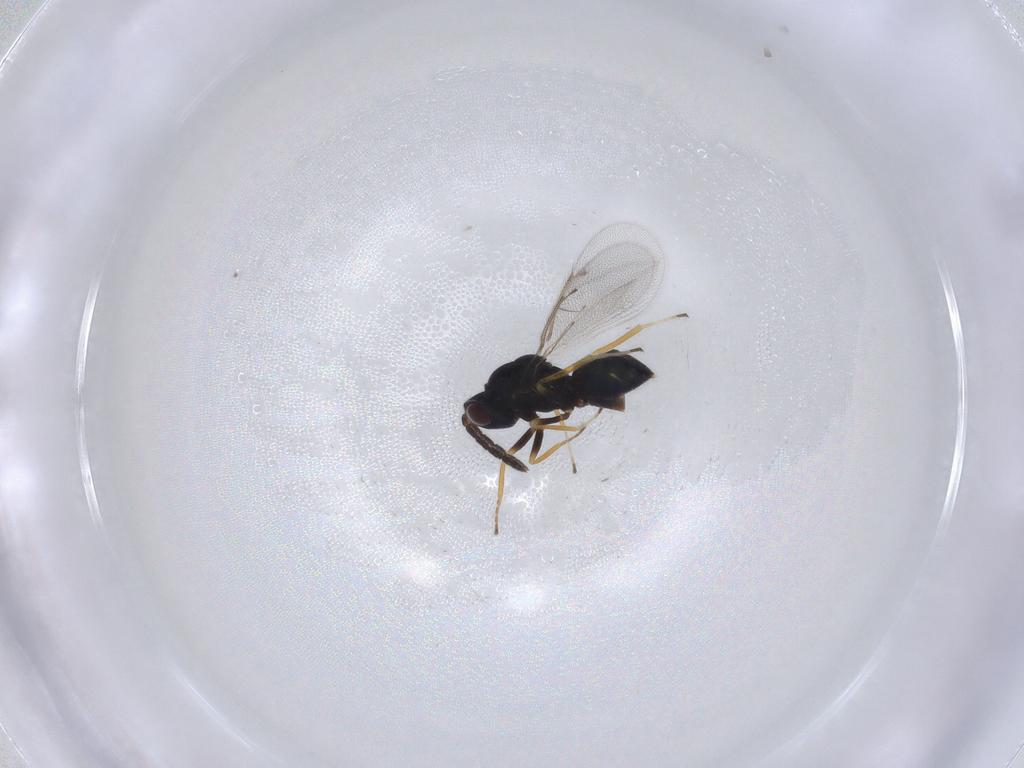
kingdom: Animalia
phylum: Arthropoda
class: Insecta
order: Hymenoptera
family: Eulophidae
